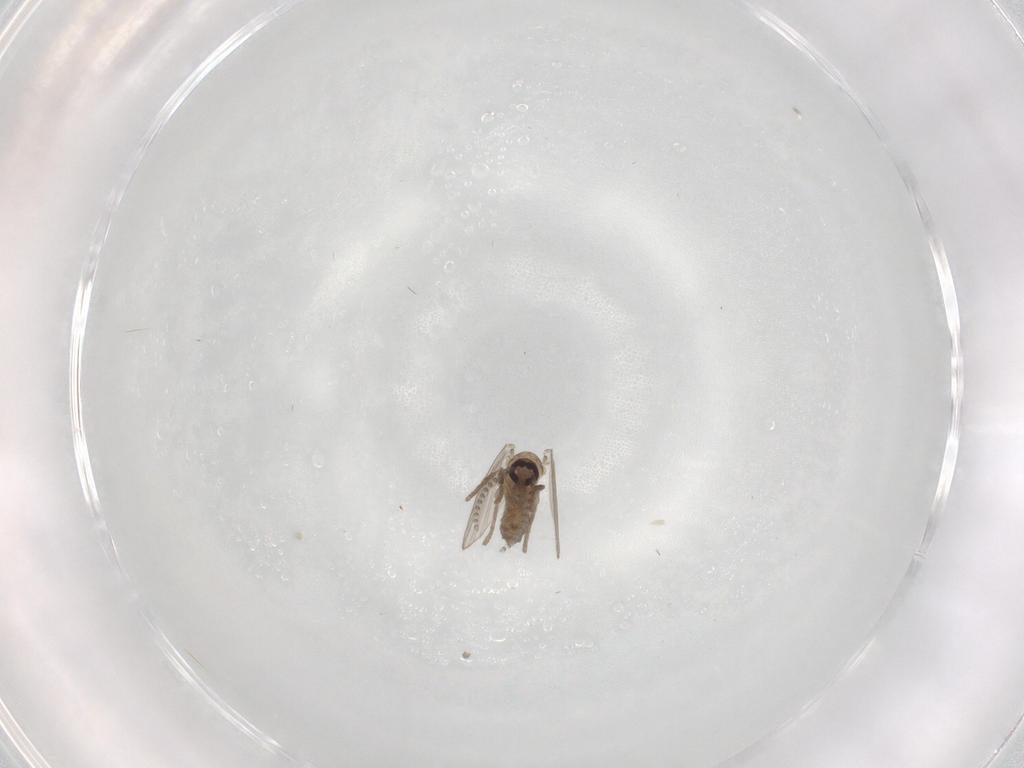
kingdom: Animalia
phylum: Arthropoda
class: Insecta
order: Diptera
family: Psychodidae
